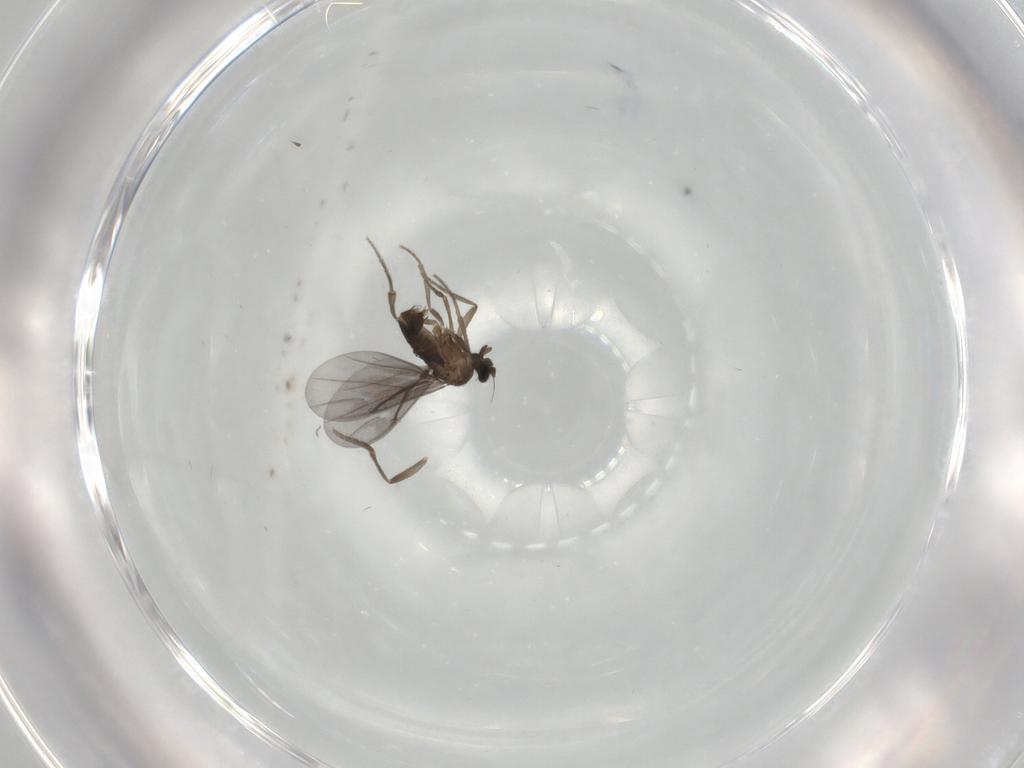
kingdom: Animalia
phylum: Arthropoda
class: Insecta
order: Diptera
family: Phoridae
